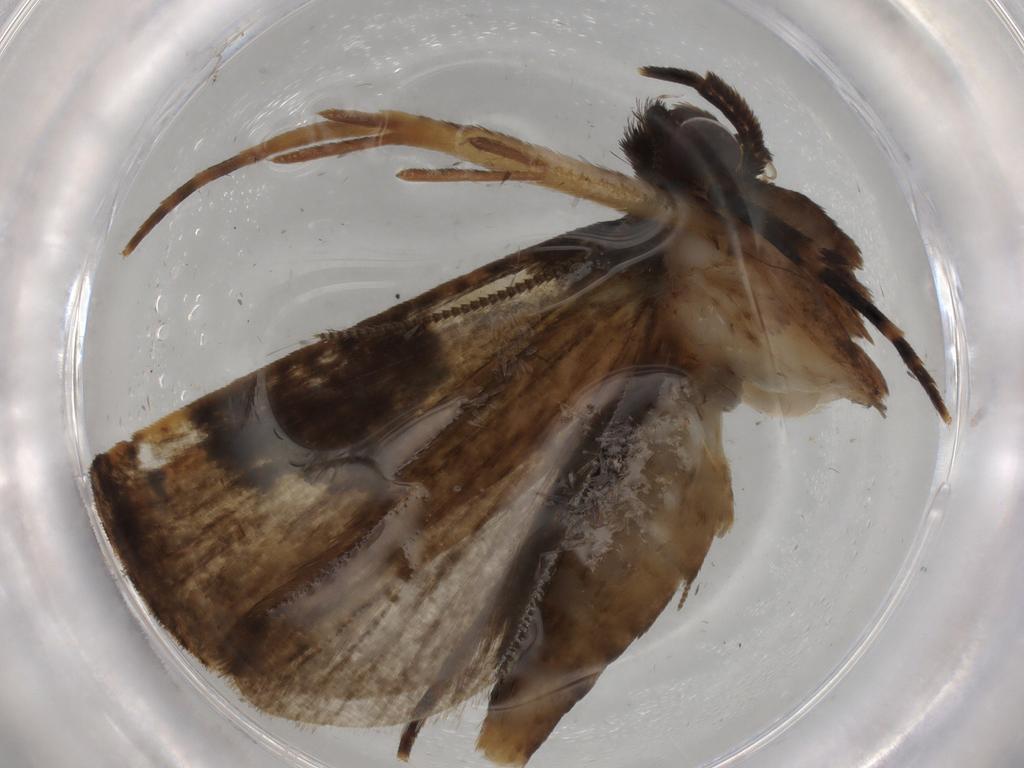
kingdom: Animalia
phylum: Arthropoda
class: Insecta
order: Lepidoptera
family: Tineidae
